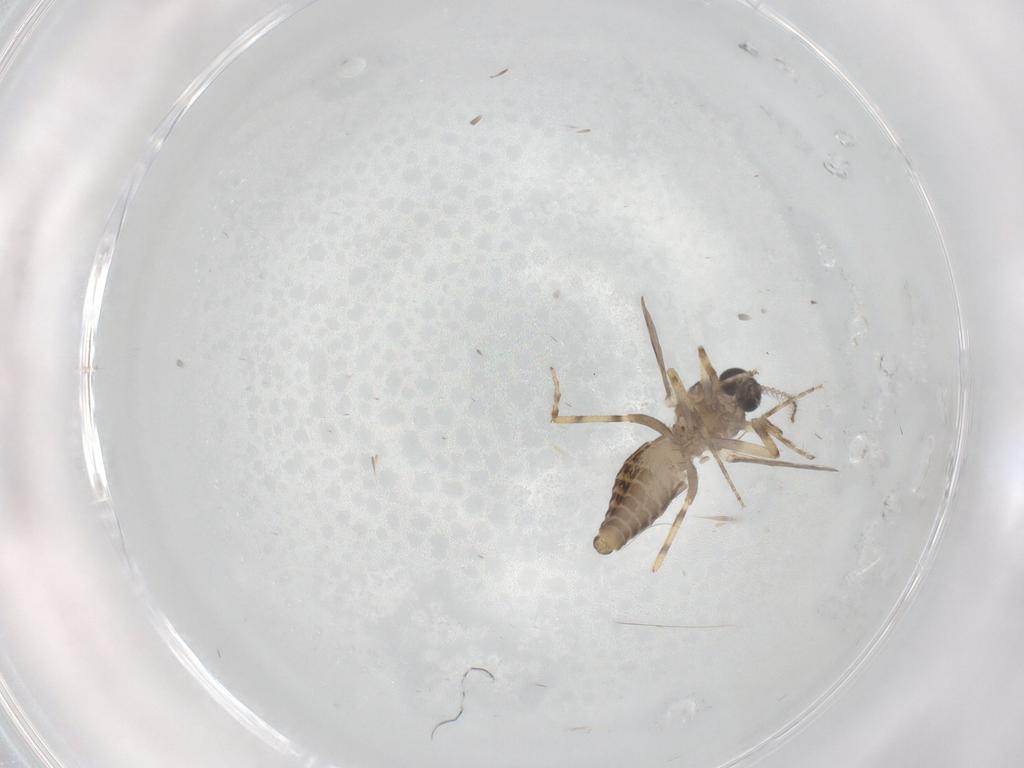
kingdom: Animalia
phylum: Arthropoda
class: Insecta
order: Diptera
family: Ceratopogonidae
